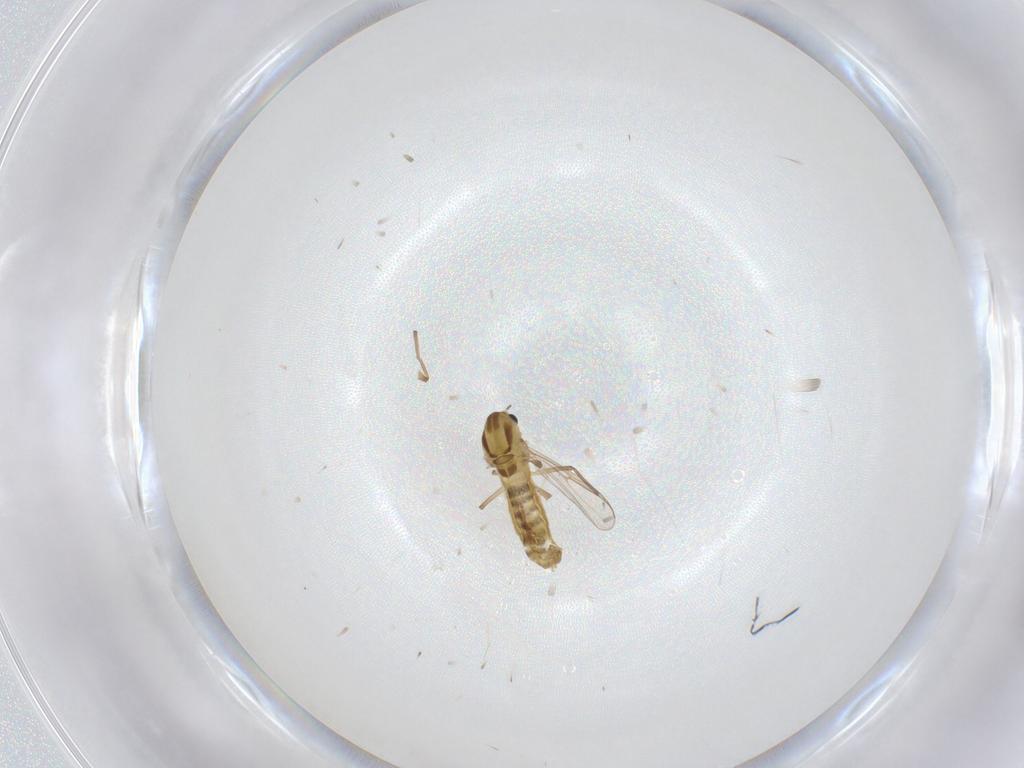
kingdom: Animalia
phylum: Arthropoda
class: Insecta
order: Diptera
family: Chironomidae
